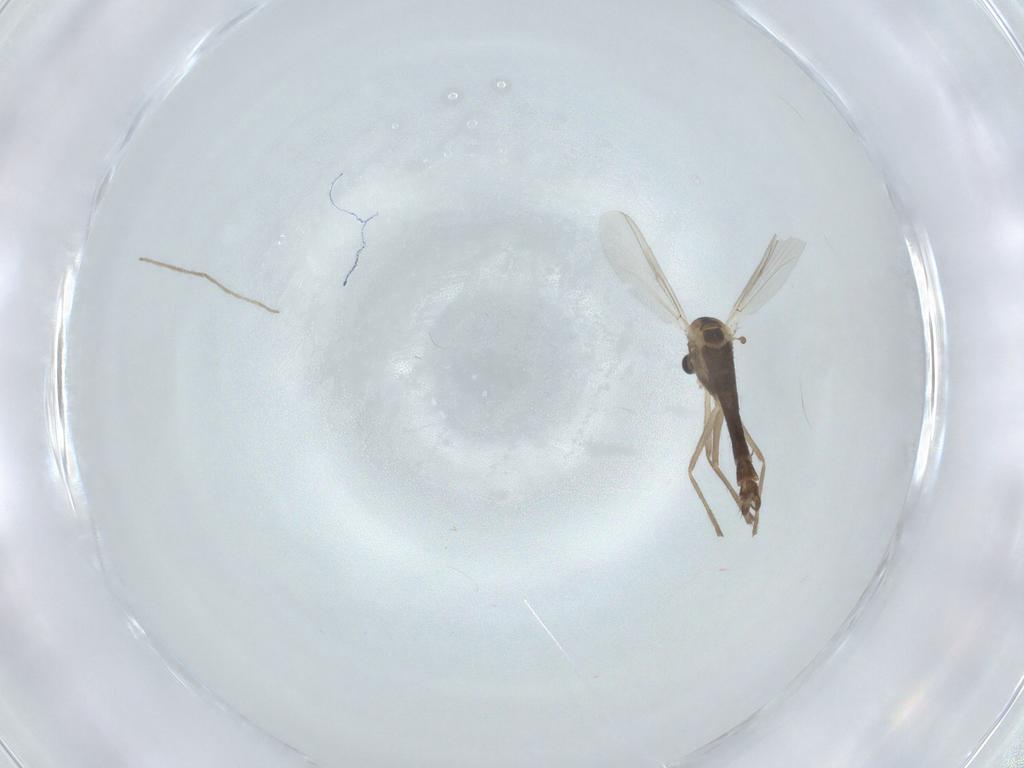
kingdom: Animalia
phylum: Arthropoda
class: Insecta
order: Diptera
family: Chironomidae
